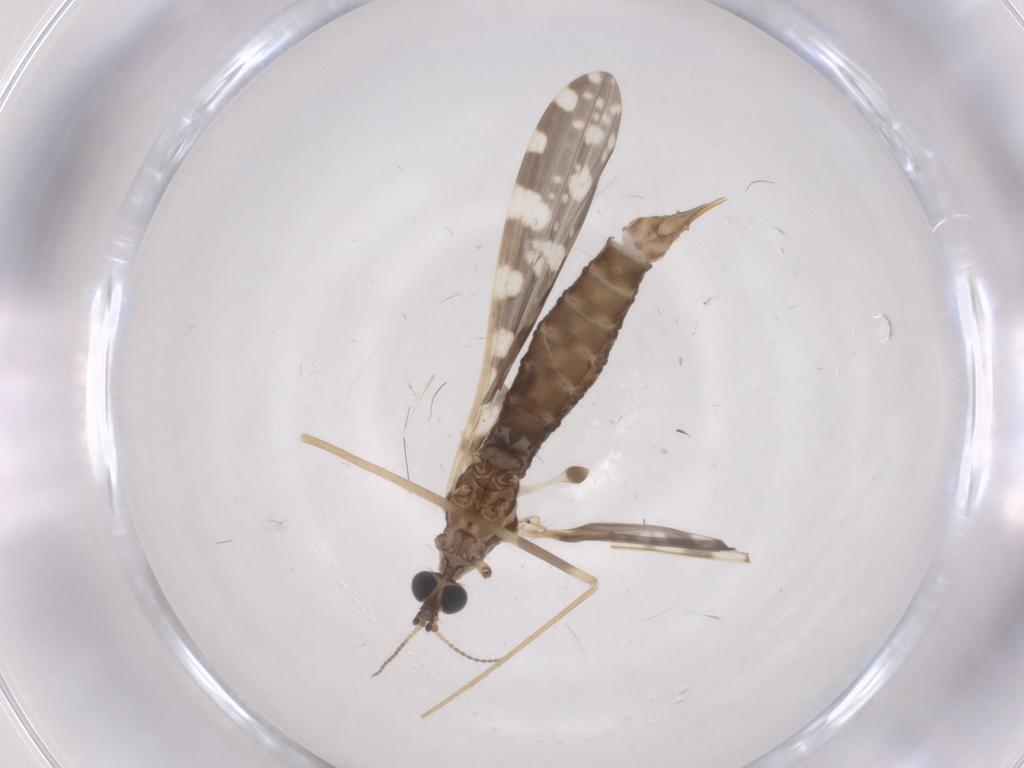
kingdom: Animalia
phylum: Arthropoda
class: Insecta
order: Diptera
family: Limoniidae
